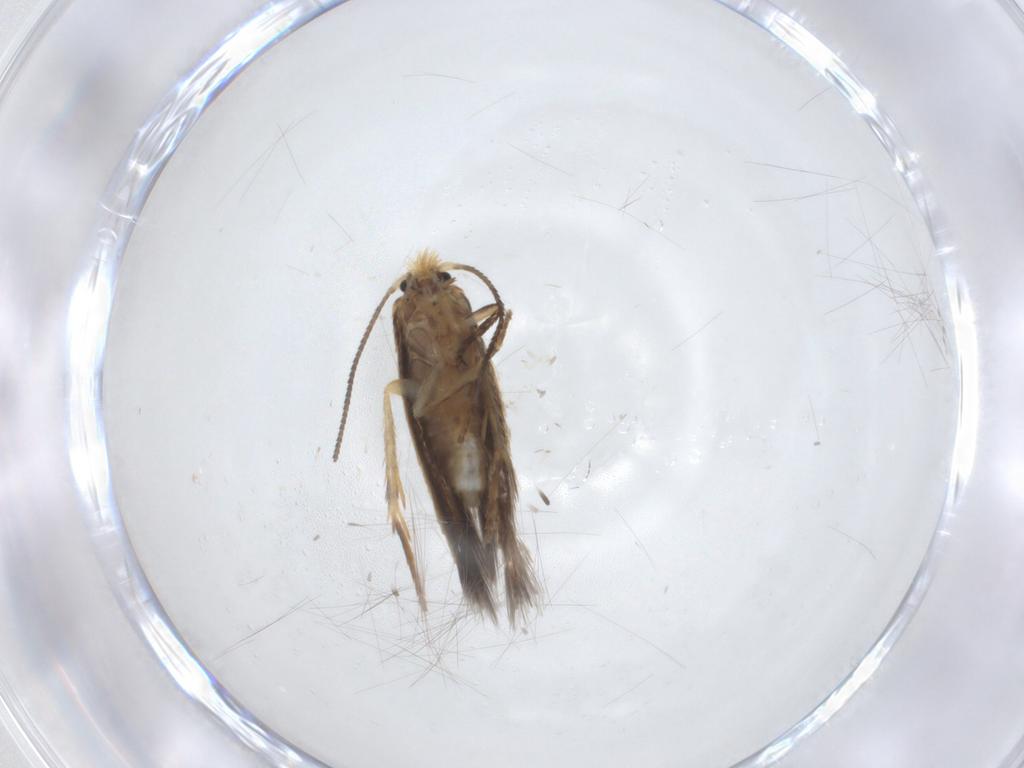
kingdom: Animalia
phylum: Arthropoda
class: Insecta
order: Lepidoptera
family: Nepticulidae
